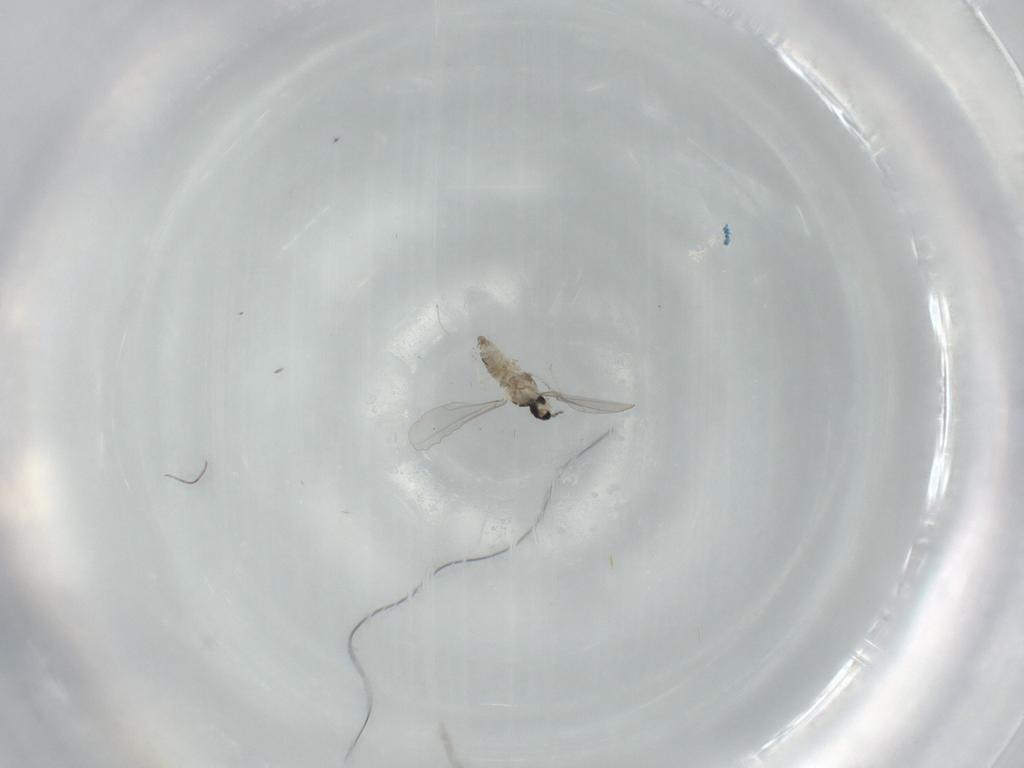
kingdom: Animalia
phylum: Arthropoda
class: Insecta
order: Diptera
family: Cecidomyiidae
